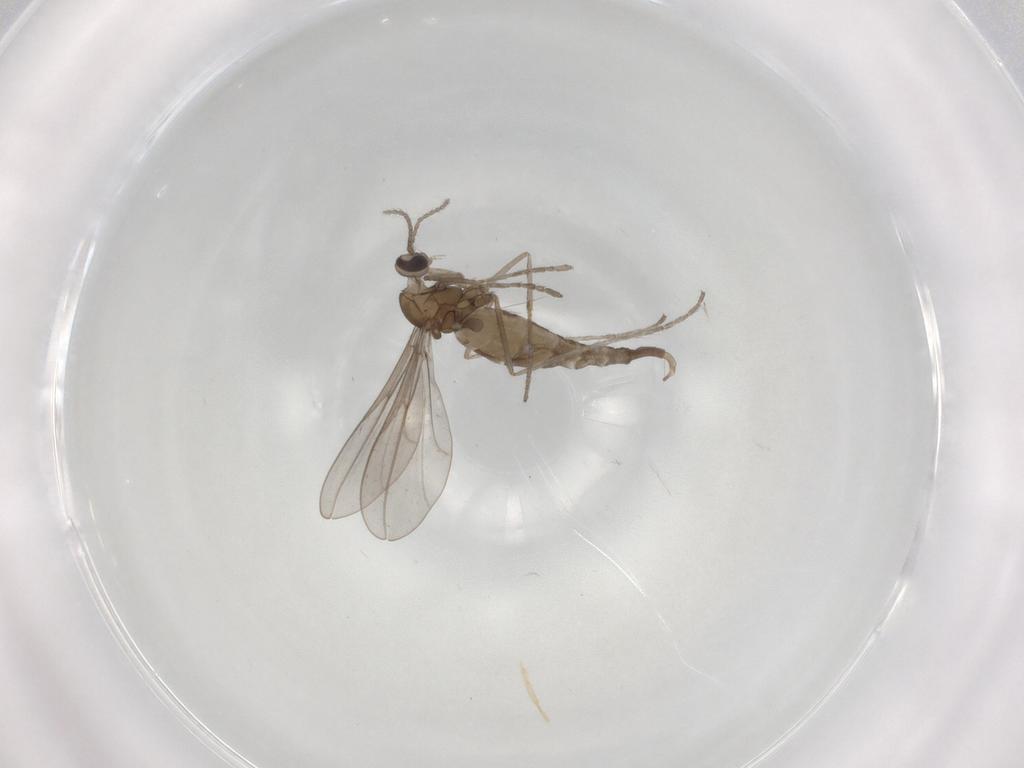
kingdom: Animalia
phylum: Arthropoda
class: Insecta
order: Diptera
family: Cecidomyiidae
